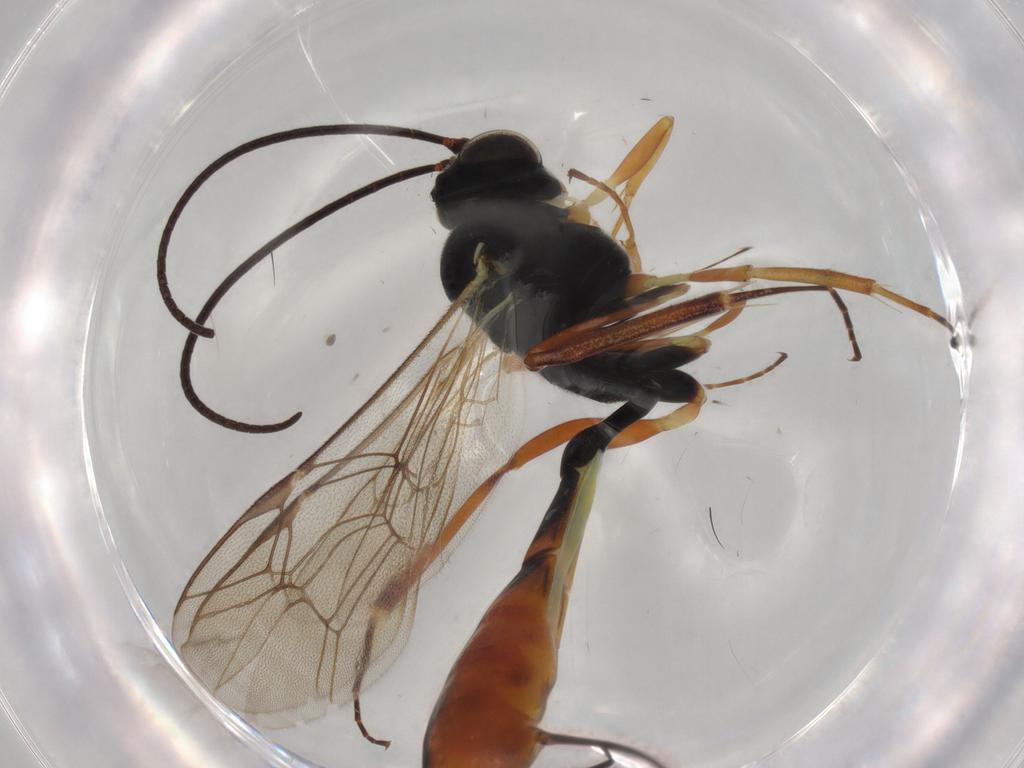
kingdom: Animalia
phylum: Arthropoda
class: Insecta
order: Hymenoptera
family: Ichneumonidae
